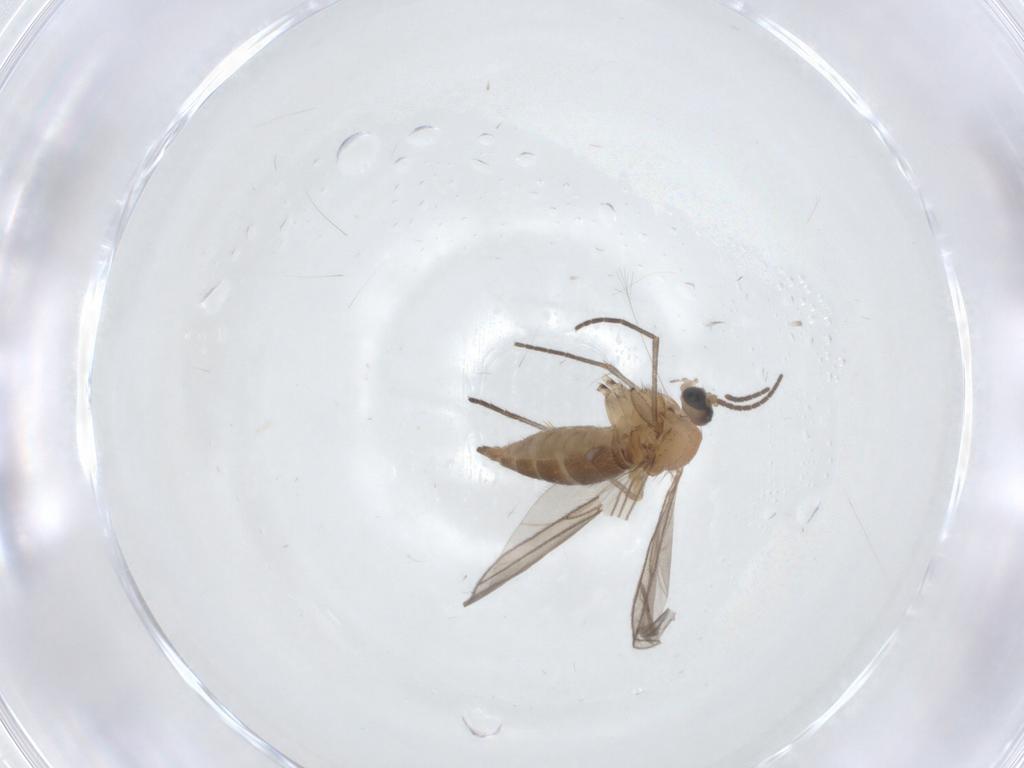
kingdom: Animalia
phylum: Arthropoda
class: Insecta
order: Diptera
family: Sciaridae
